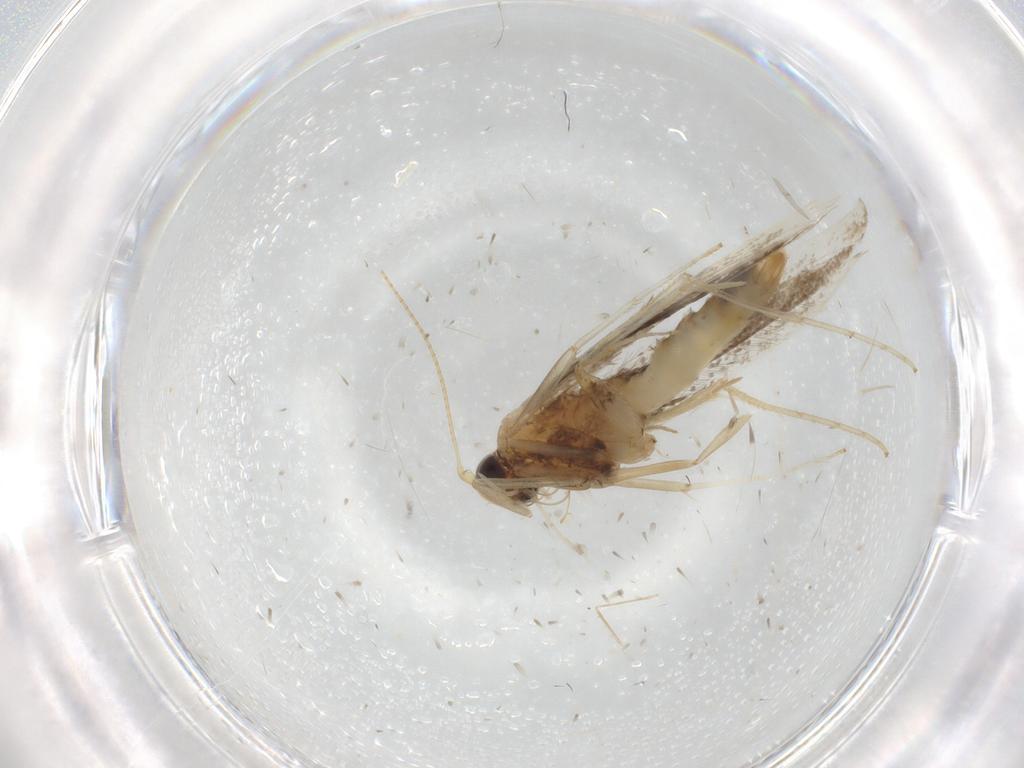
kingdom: Animalia
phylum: Arthropoda
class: Insecta
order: Lepidoptera
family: Gracillariidae
